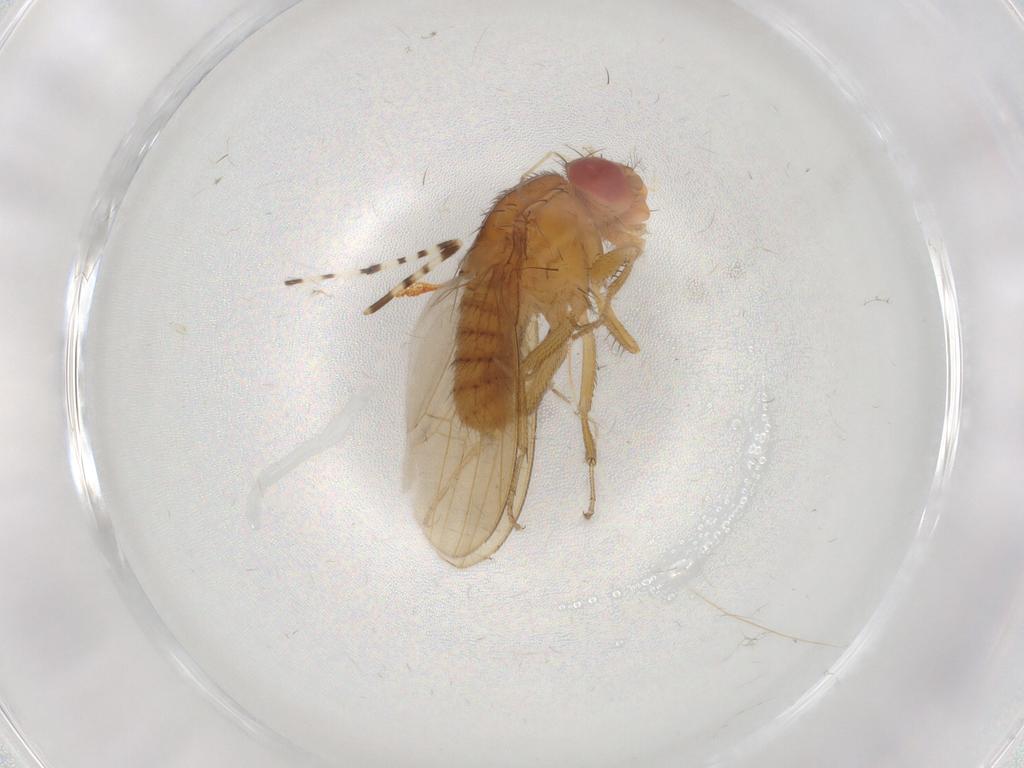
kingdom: Animalia
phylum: Arthropoda
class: Insecta
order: Diptera
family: Drosophilidae
